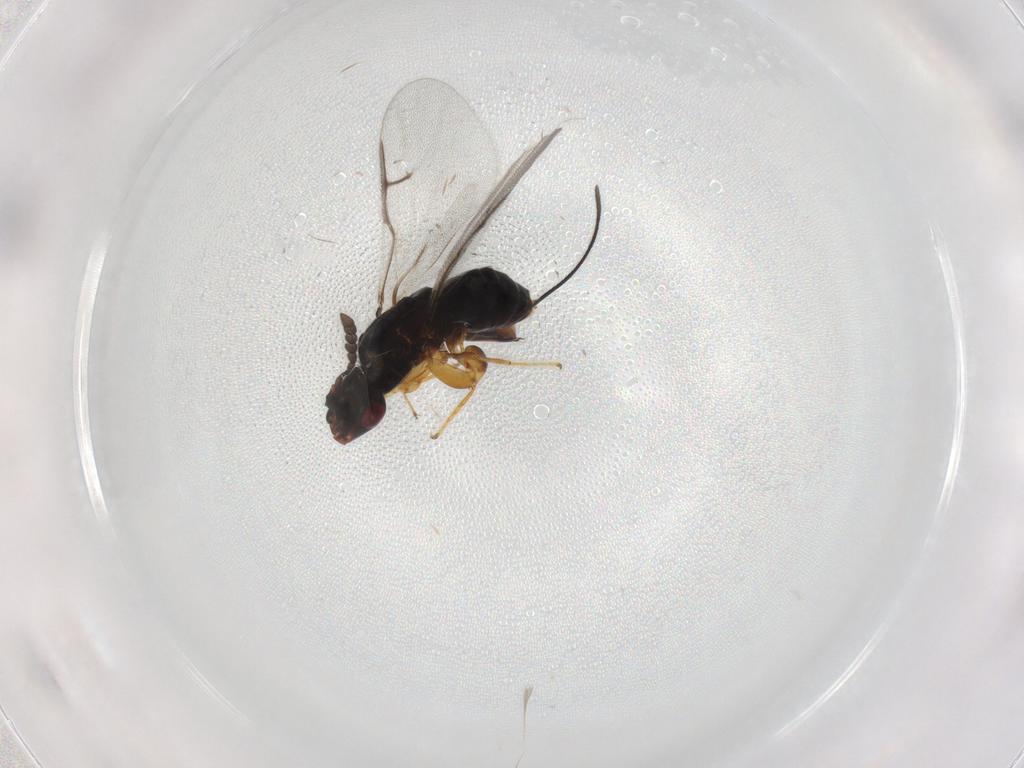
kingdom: Animalia
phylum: Arthropoda
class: Insecta
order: Hymenoptera
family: Agaonidae
